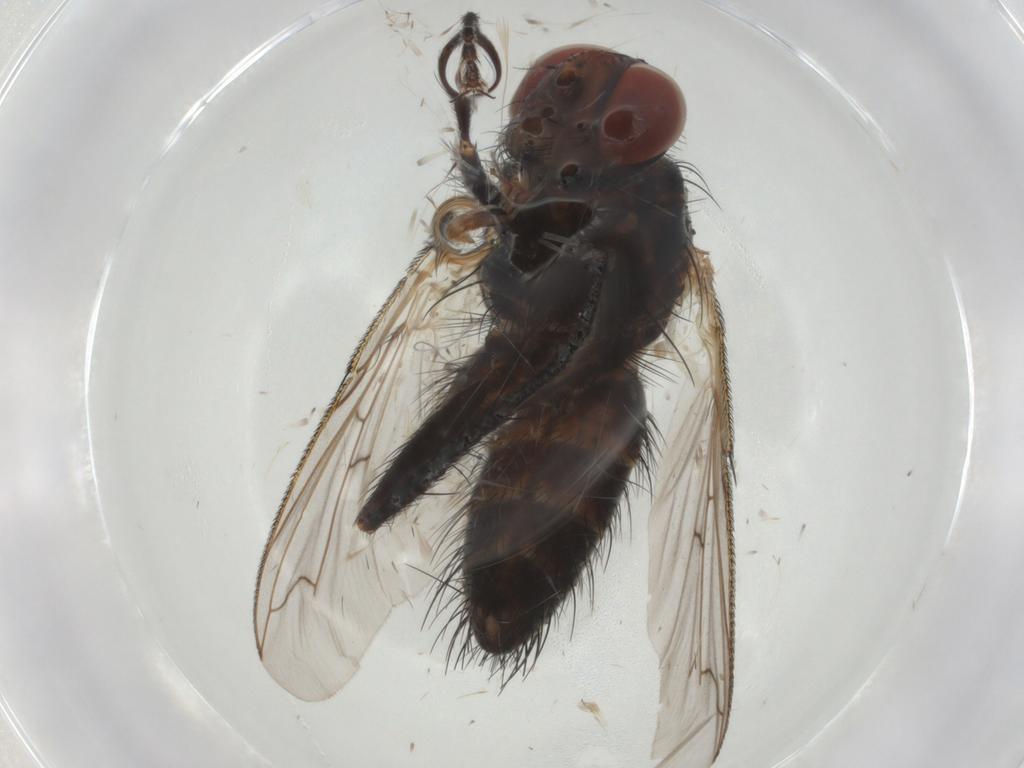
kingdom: Animalia
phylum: Arthropoda
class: Insecta
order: Diptera
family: Tachinidae
